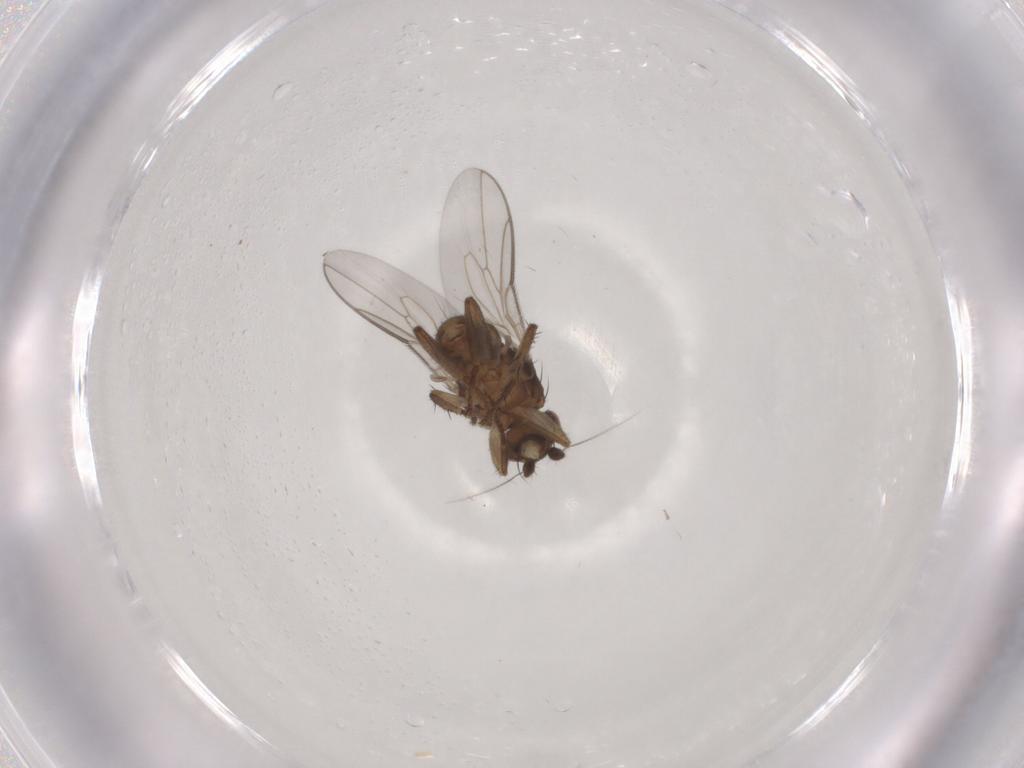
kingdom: Animalia
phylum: Arthropoda
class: Insecta
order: Diptera
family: Sphaeroceridae
